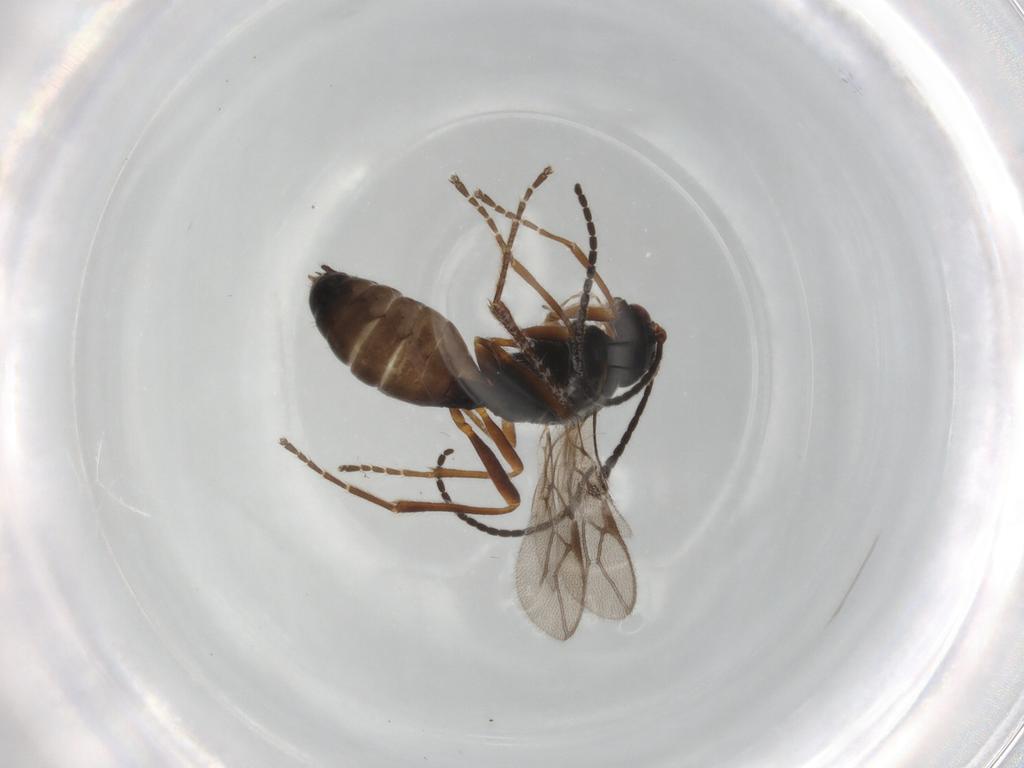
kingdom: Animalia
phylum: Arthropoda
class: Insecta
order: Hymenoptera
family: Braconidae
